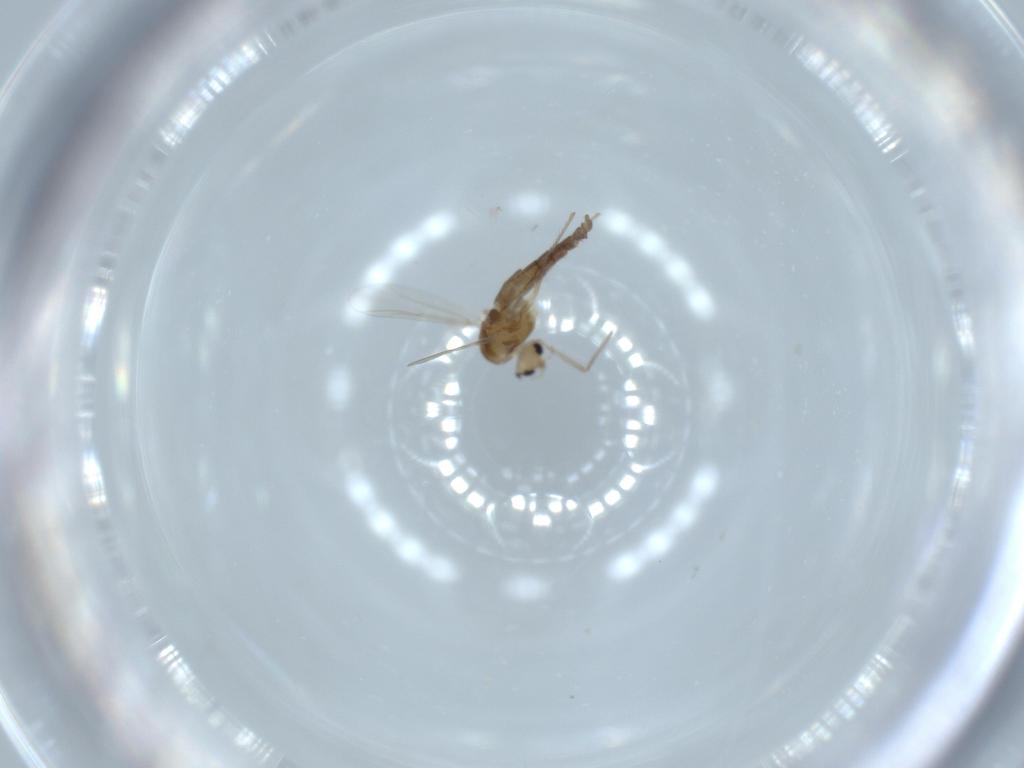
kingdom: Animalia
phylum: Arthropoda
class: Insecta
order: Diptera
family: Chironomidae
